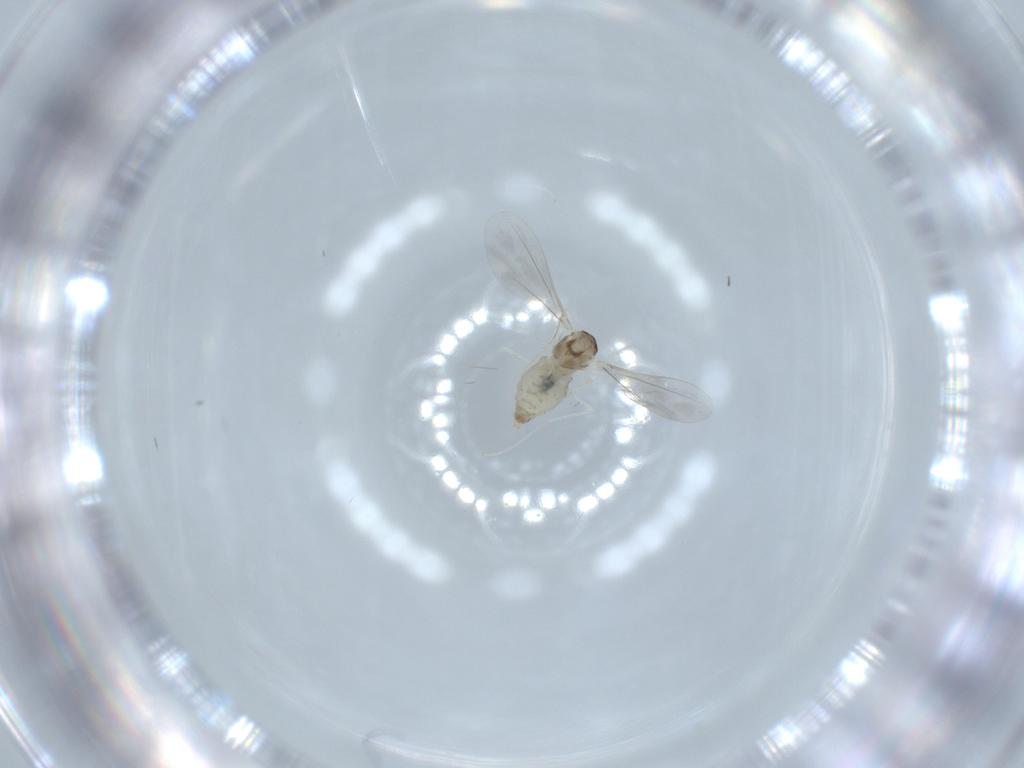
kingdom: Animalia
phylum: Arthropoda
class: Insecta
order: Diptera
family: Cecidomyiidae
